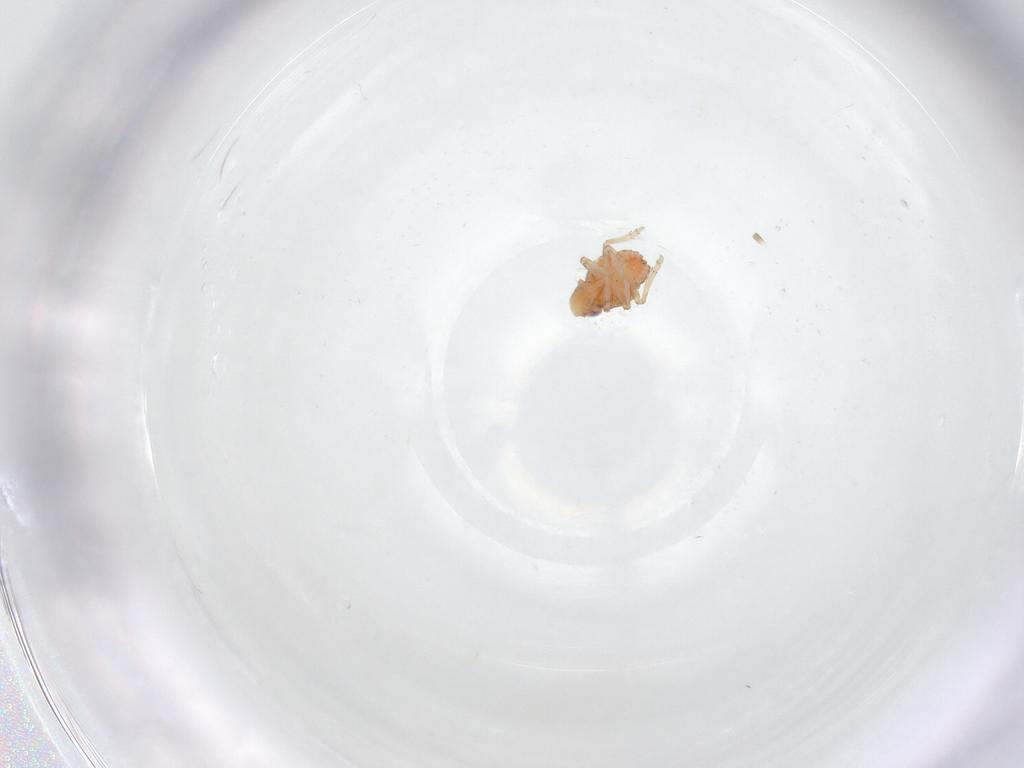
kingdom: Animalia
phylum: Arthropoda
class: Insecta
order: Hemiptera
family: Issidae
